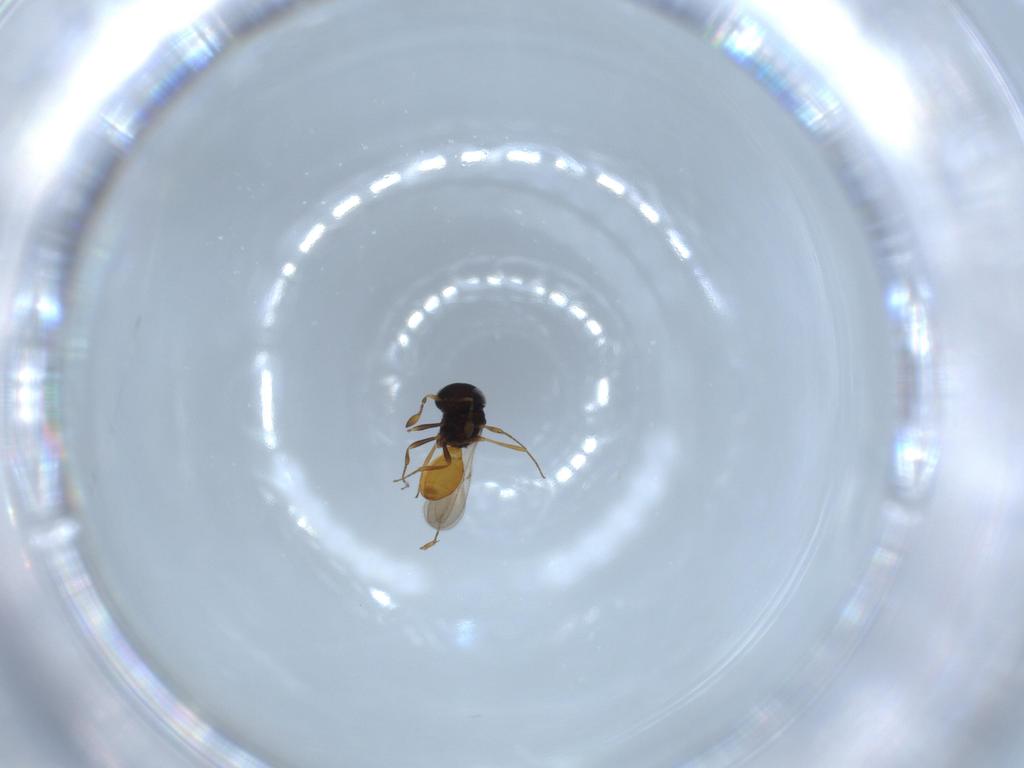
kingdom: Animalia
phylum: Arthropoda
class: Insecta
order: Hymenoptera
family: Scelionidae
